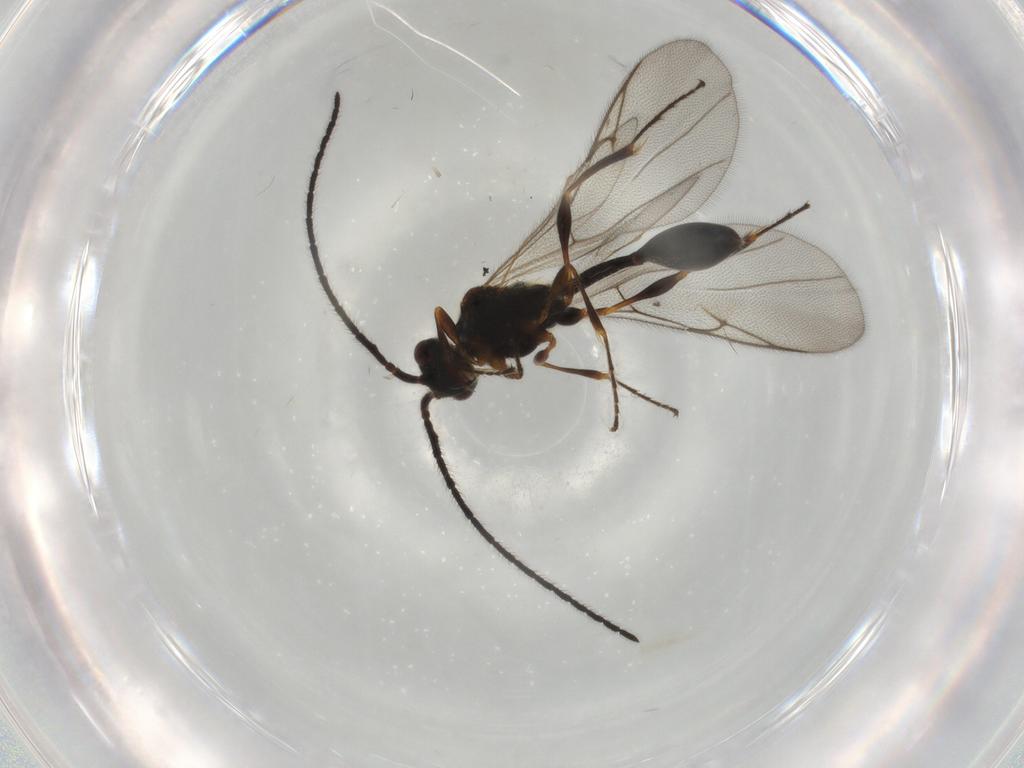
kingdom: Animalia
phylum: Arthropoda
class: Insecta
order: Hymenoptera
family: Diapriidae
